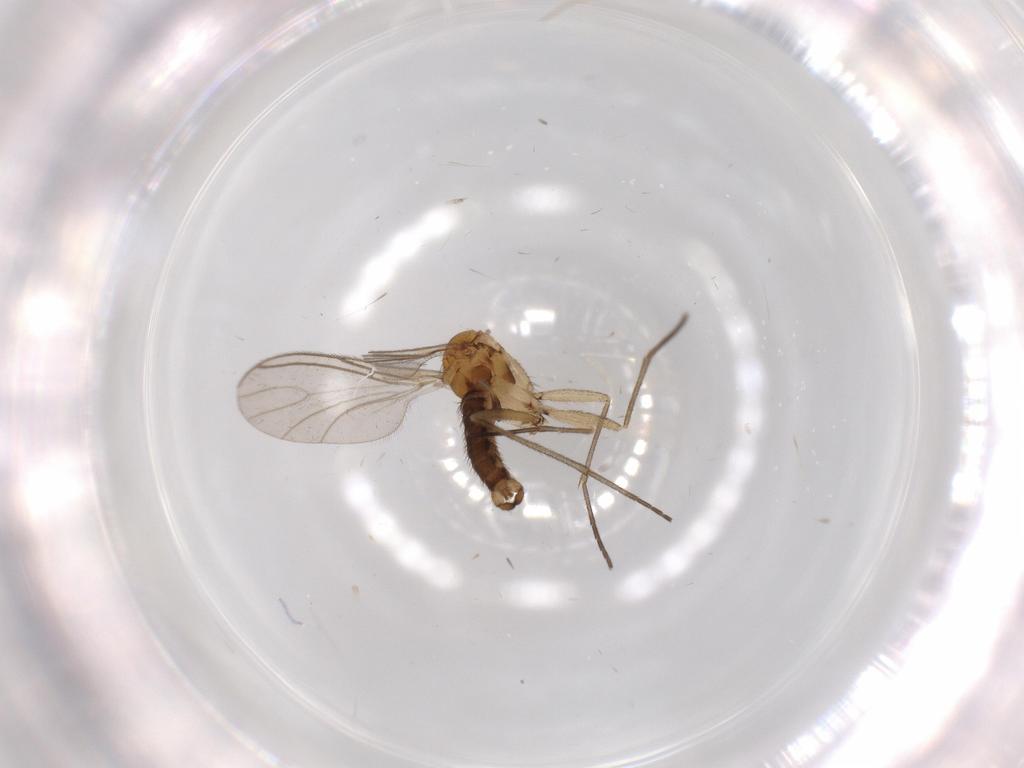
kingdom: Animalia
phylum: Arthropoda
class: Insecta
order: Diptera
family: Sciaridae
